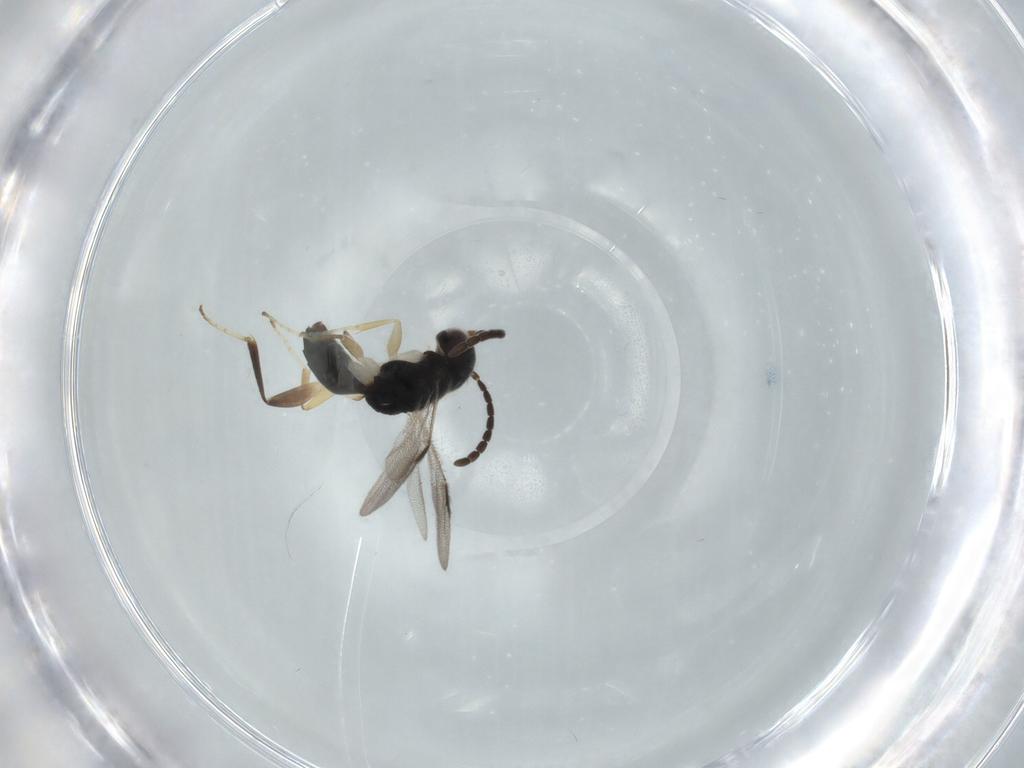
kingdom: Animalia
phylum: Arthropoda
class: Insecta
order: Hymenoptera
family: Dryinidae
